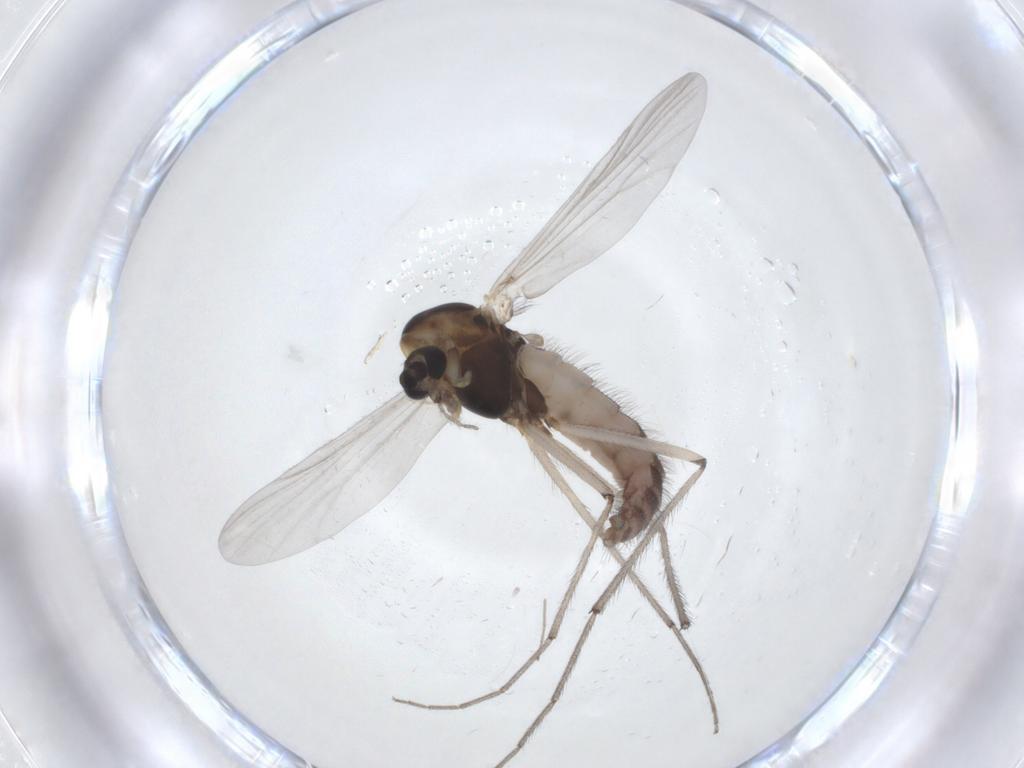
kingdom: Animalia
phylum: Arthropoda
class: Insecta
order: Diptera
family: Chironomidae
